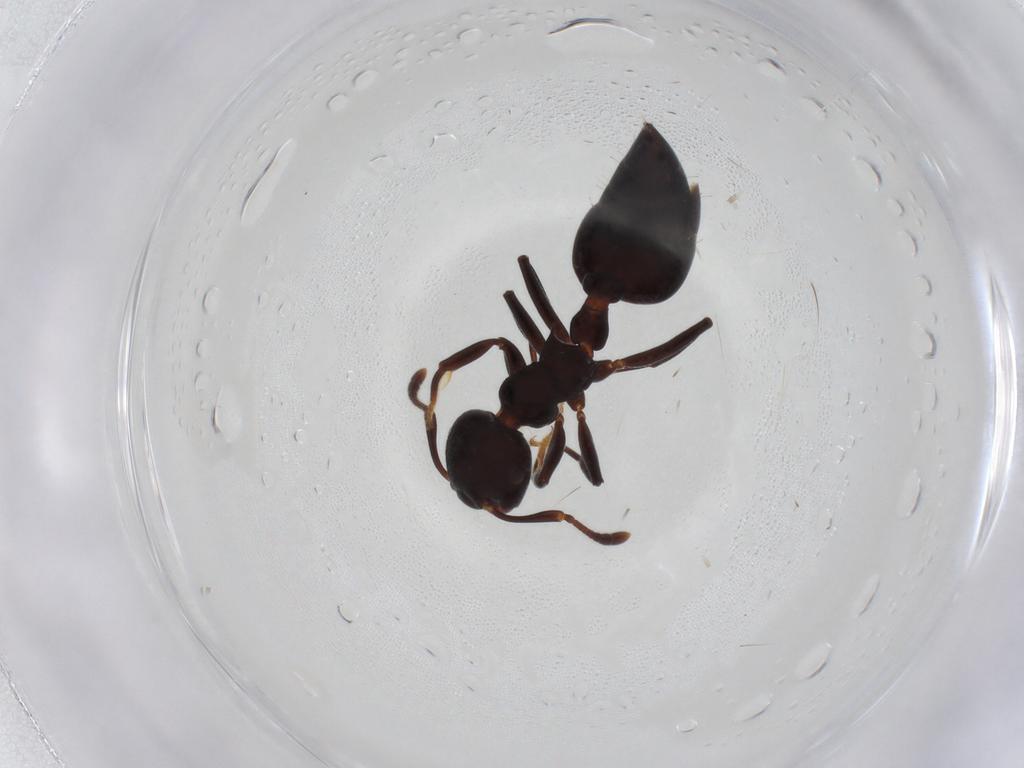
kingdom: Animalia
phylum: Arthropoda
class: Insecta
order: Hymenoptera
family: Formicidae
